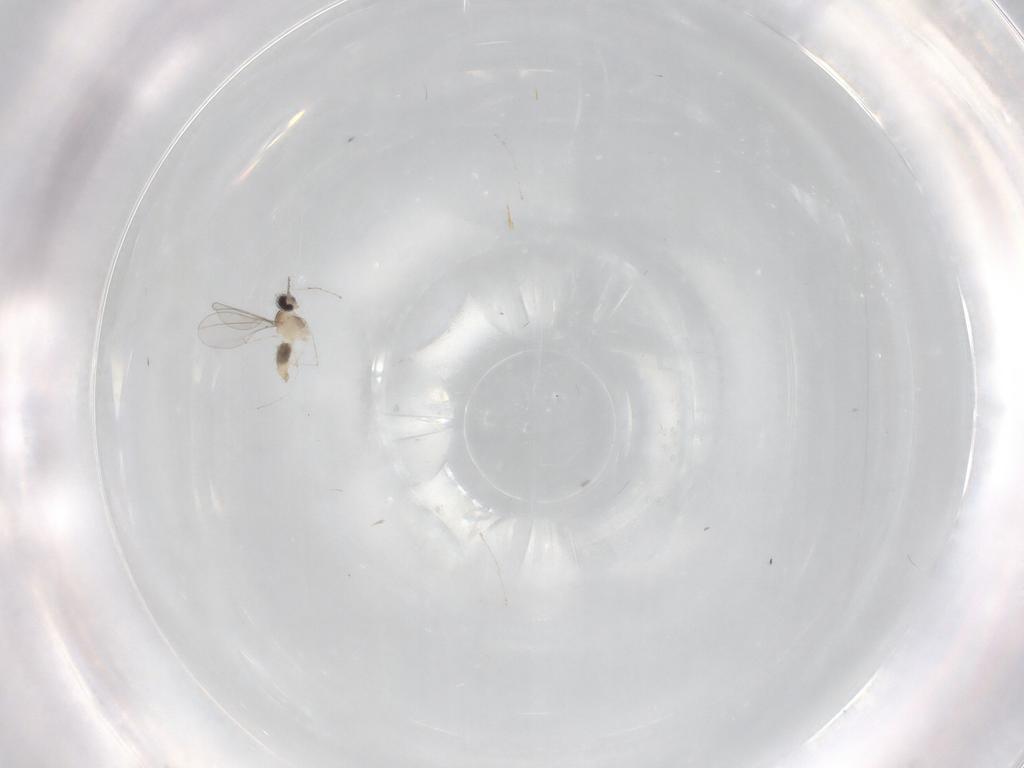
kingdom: Animalia
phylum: Arthropoda
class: Insecta
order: Diptera
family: Cecidomyiidae
